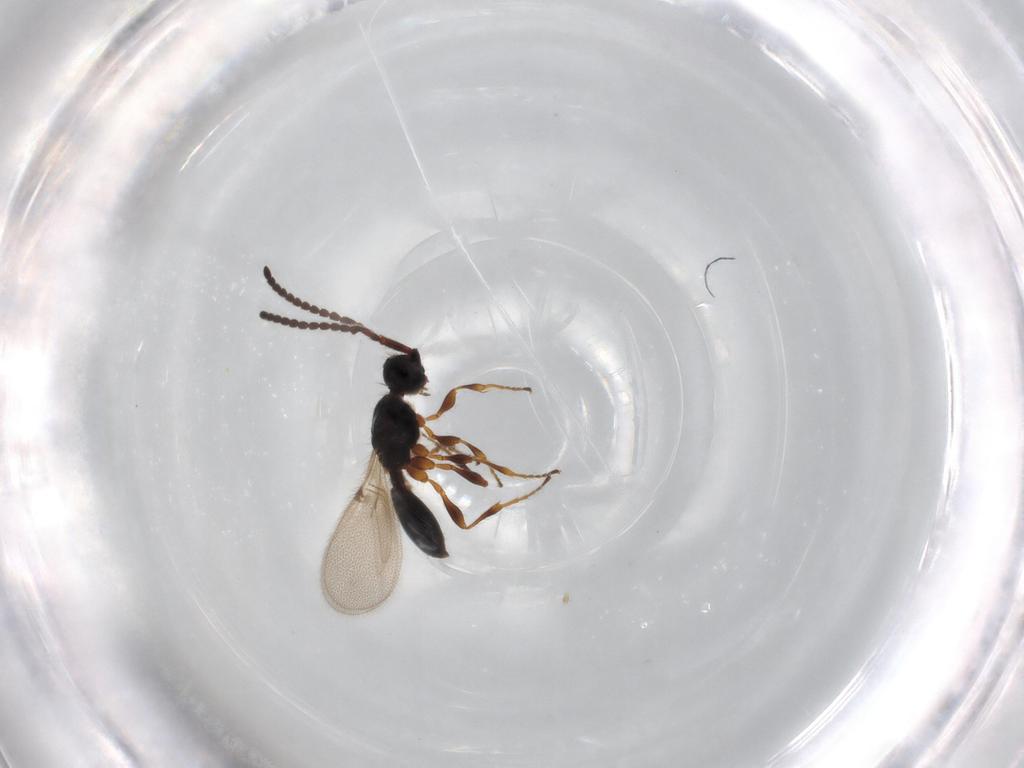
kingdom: Animalia
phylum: Arthropoda
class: Insecta
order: Hymenoptera
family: Diapriidae
